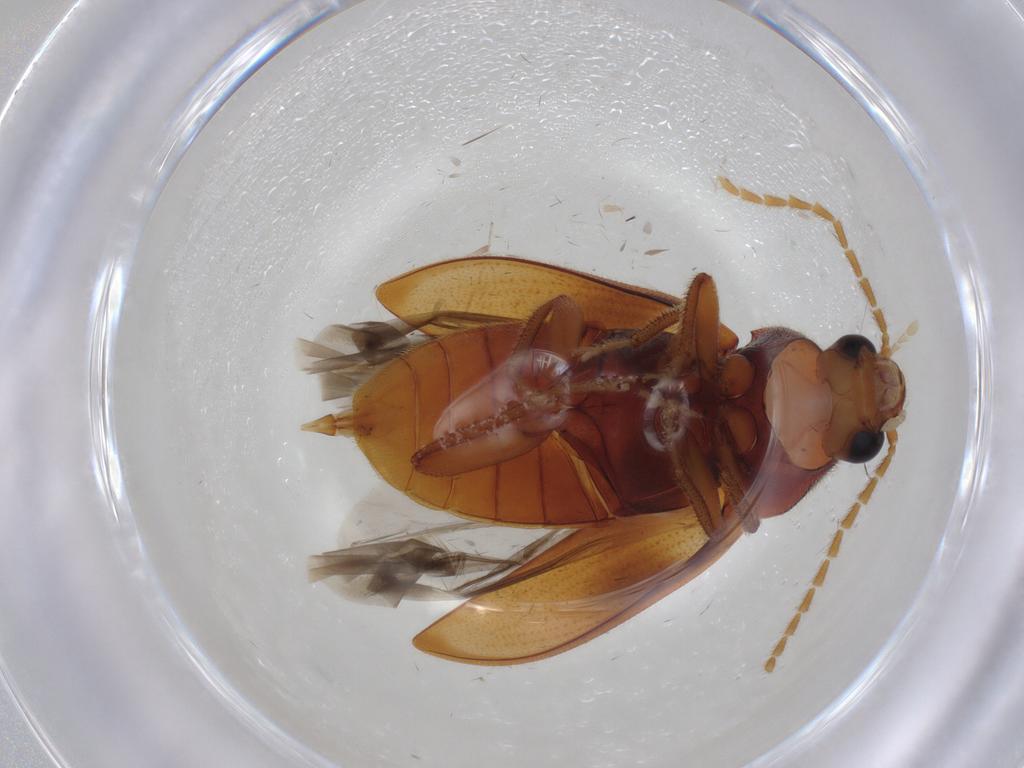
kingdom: Animalia
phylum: Arthropoda
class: Insecta
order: Coleoptera
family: Ptilodactylidae
